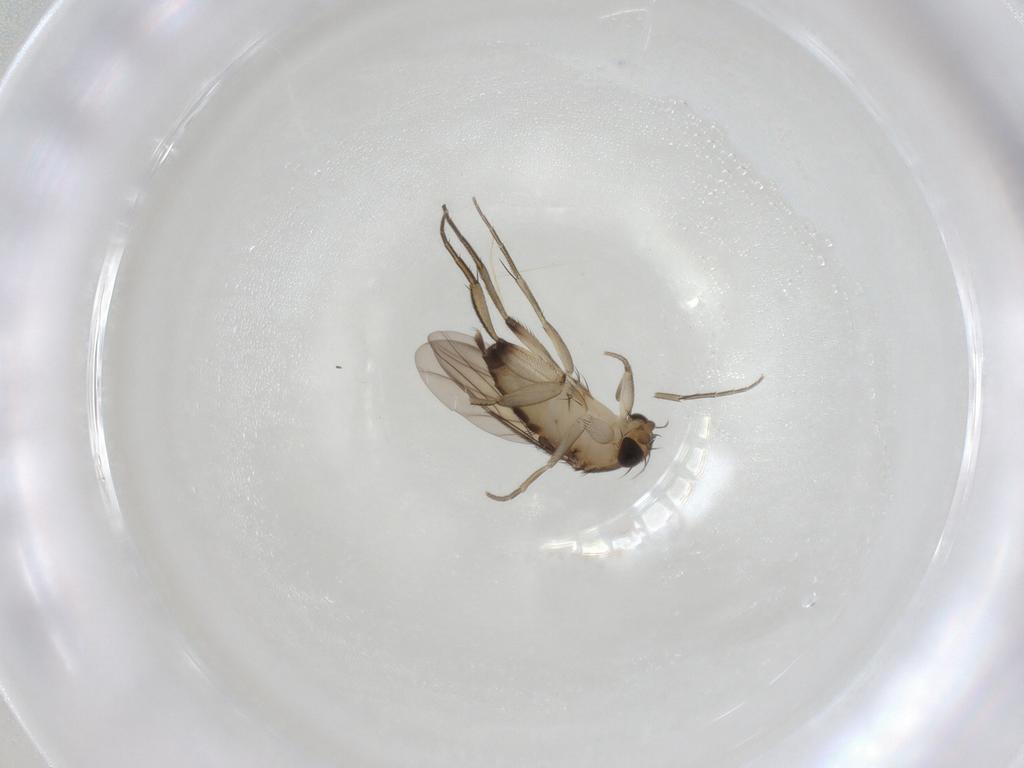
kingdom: Animalia
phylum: Arthropoda
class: Insecta
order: Diptera
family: Phoridae
